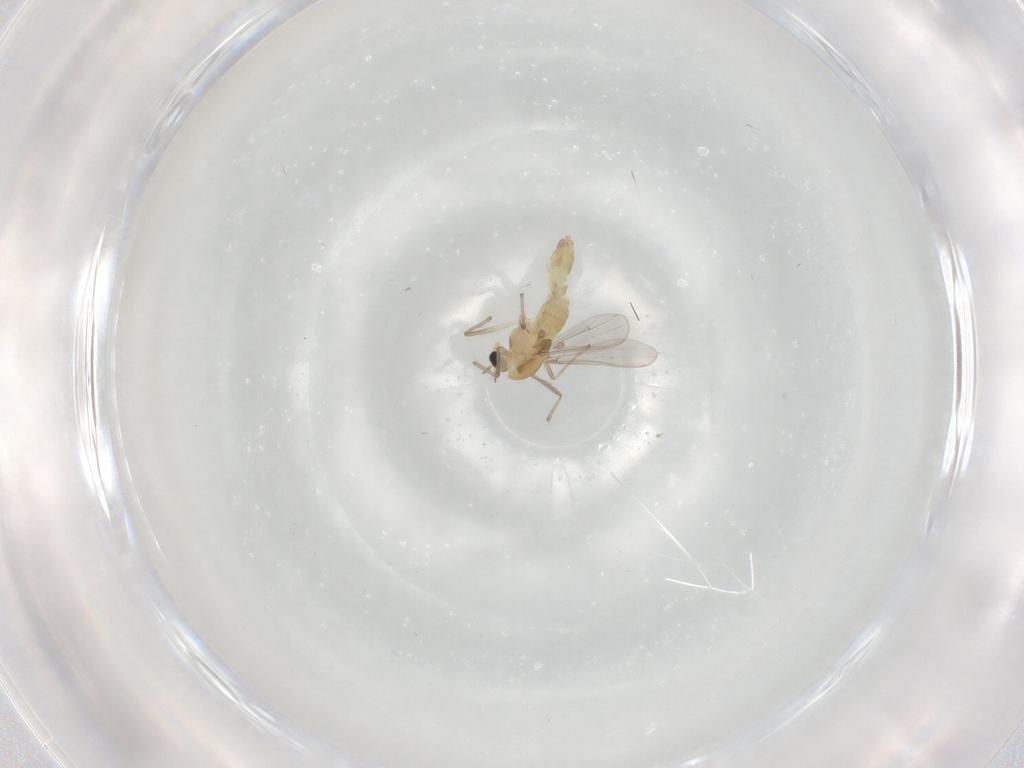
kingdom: Animalia
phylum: Arthropoda
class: Insecta
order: Diptera
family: Chironomidae
